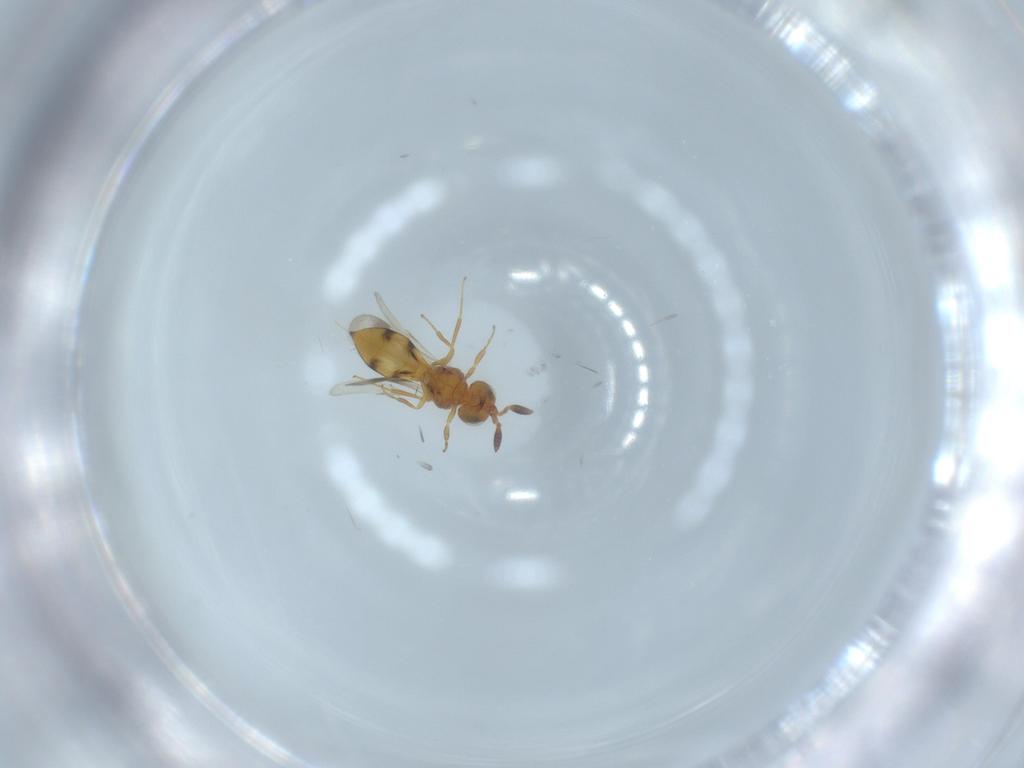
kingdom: Animalia
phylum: Arthropoda
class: Insecta
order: Hymenoptera
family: Scelionidae
